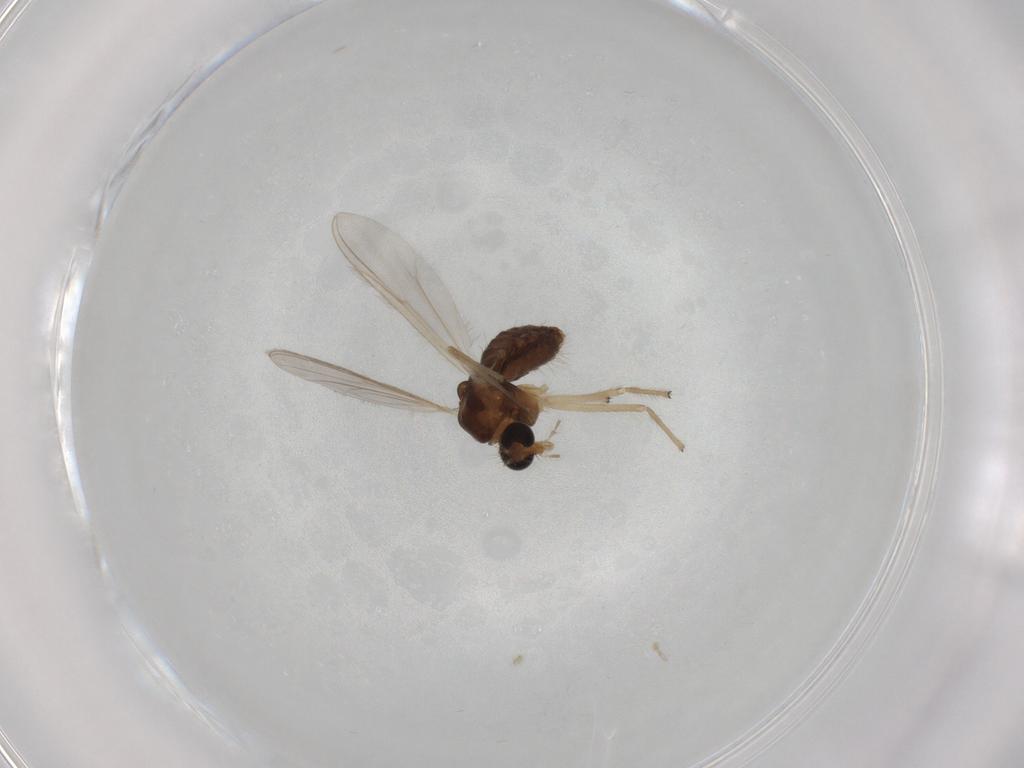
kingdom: Animalia
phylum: Arthropoda
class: Insecta
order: Diptera
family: Chironomidae
